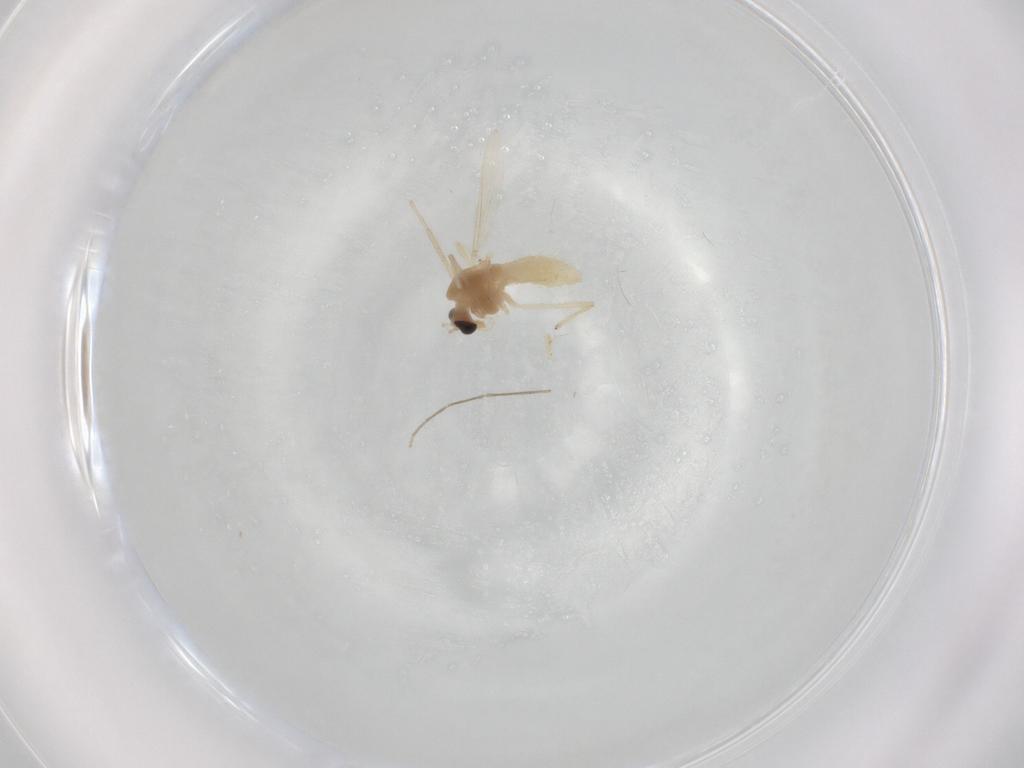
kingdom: Animalia
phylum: Arthropoda
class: Insecta
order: Diptera
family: Chironomidae
